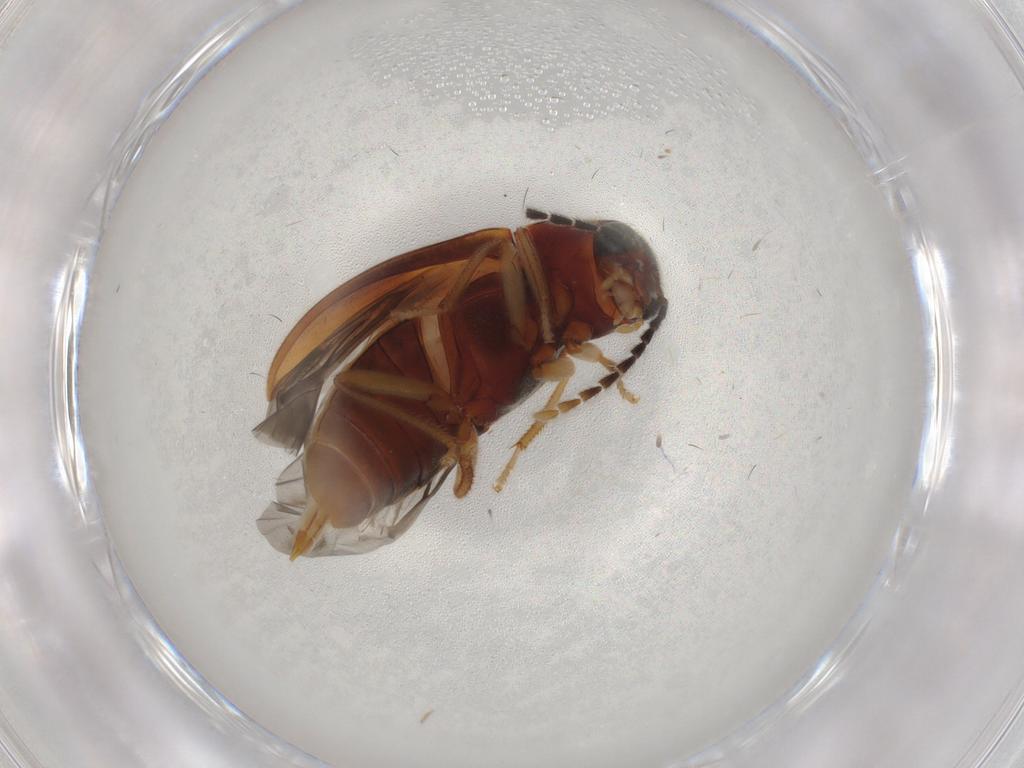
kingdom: Animalia
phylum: Arthropoda
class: Insecta
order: Coleoptera
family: Ptilodactylidae
